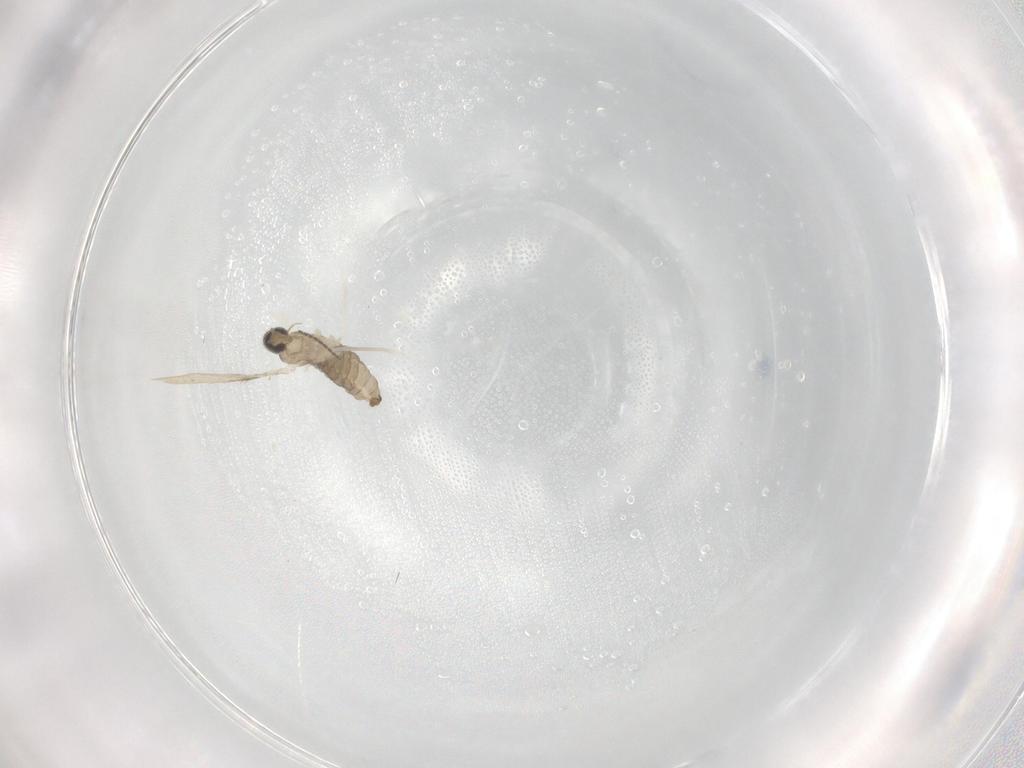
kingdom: Animalia
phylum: Arthropoda
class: Insecta
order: Diptera
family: Cecidomyiidae
